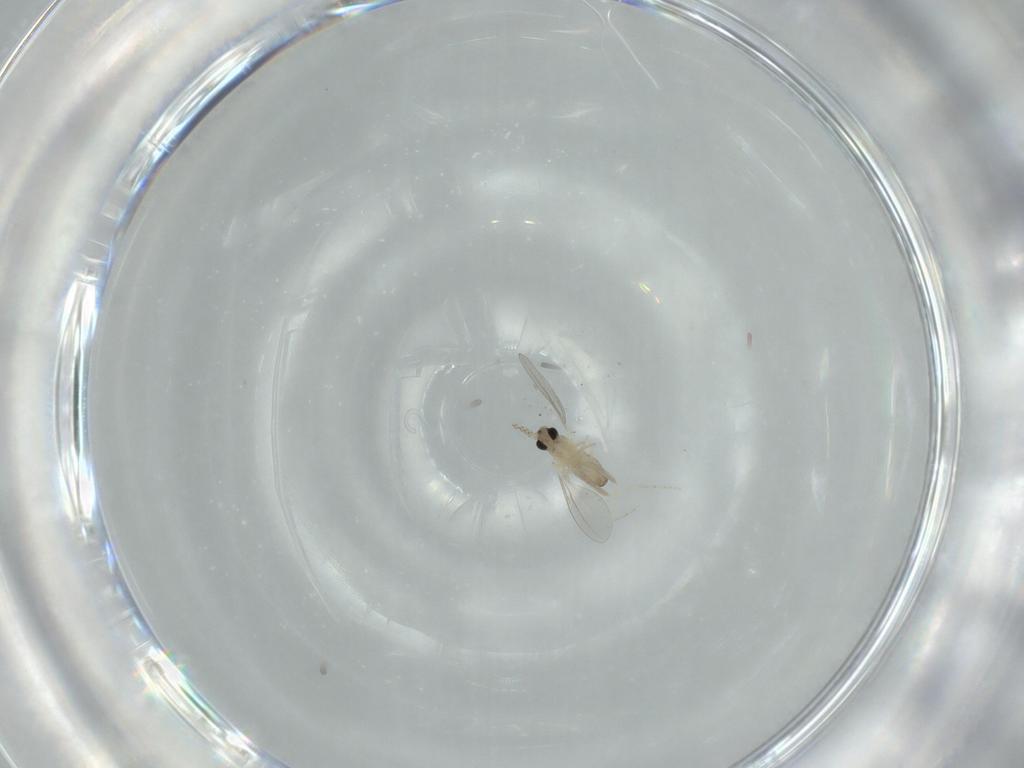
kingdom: Animalia
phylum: Arthropoda
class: Insecta
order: Diptera
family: Cecidomyiidae
